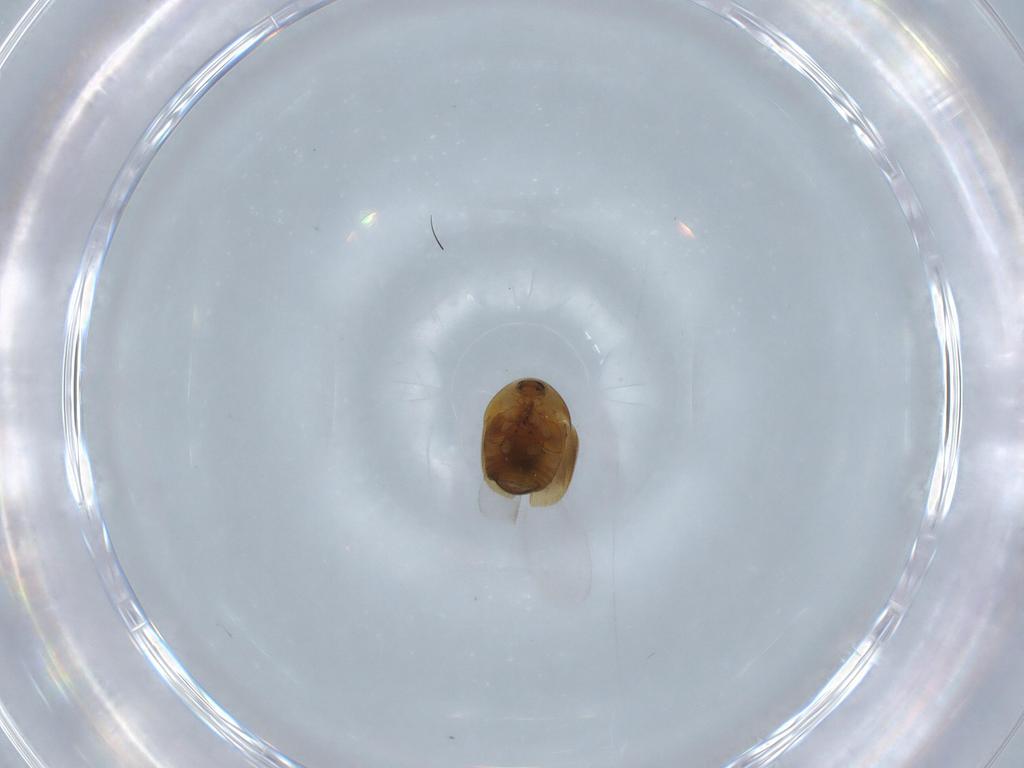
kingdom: Animalia
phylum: Arthropoda
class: Insecta
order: Coleoptera
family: Corylophidae
